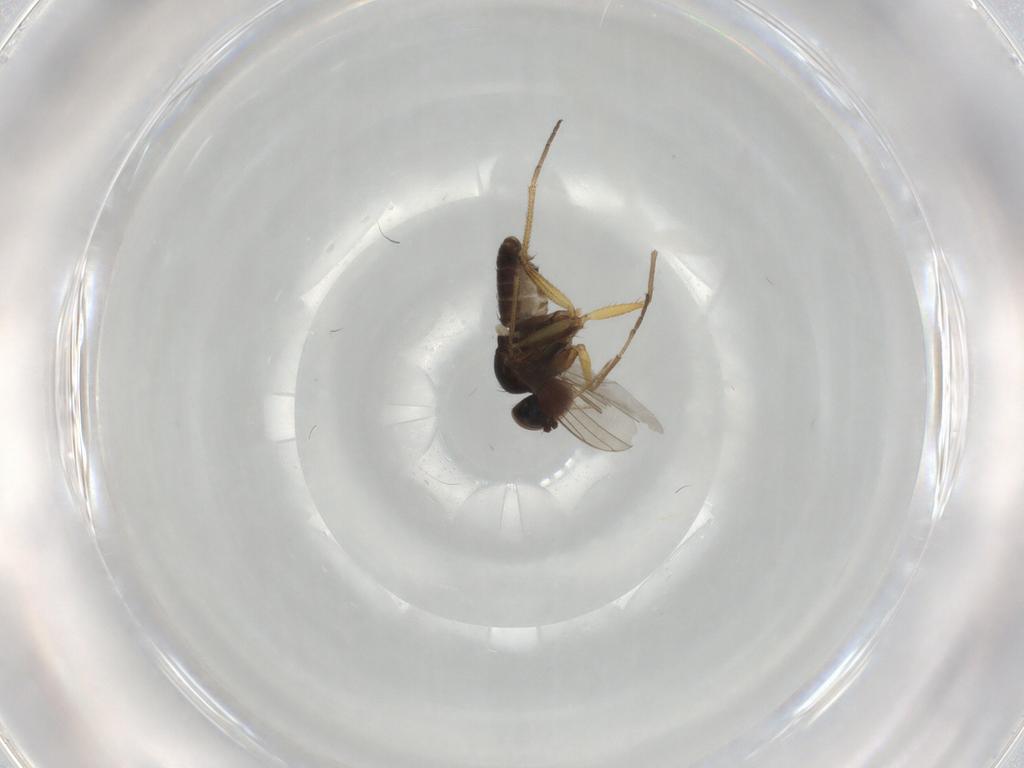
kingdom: Animalia
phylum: Arthropoda
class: Insecta
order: Diptera
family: Dolichopodidae
